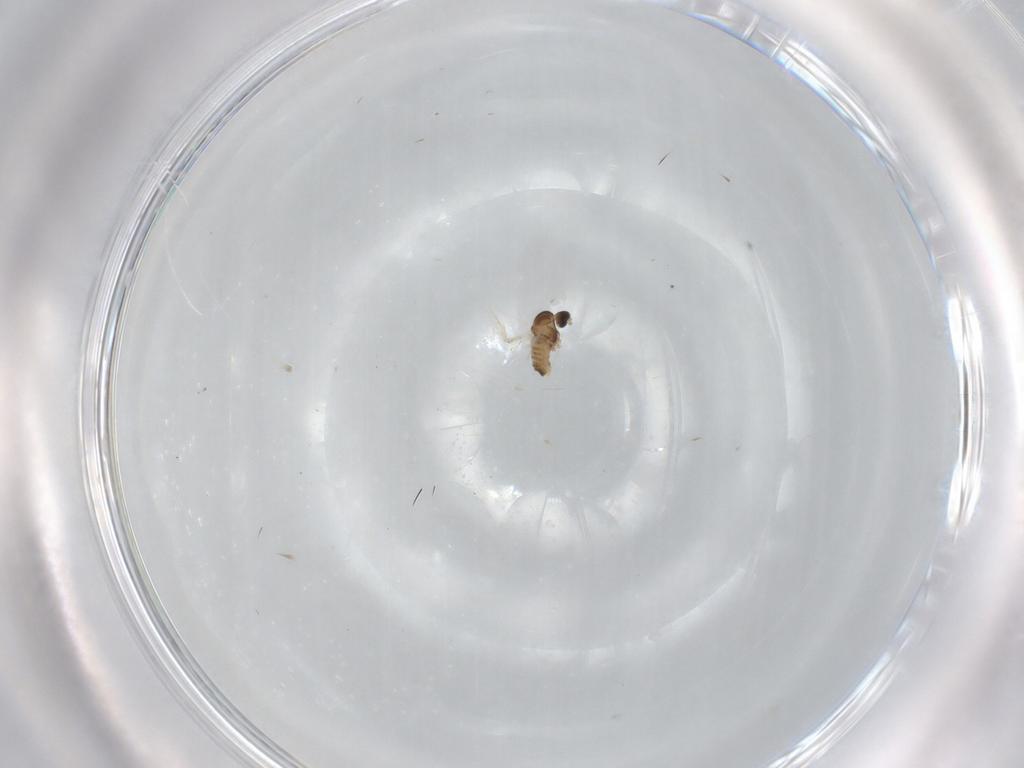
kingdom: Animalia
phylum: Arthropoda
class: Insecta
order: Diptera
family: Cecidomyiidae
